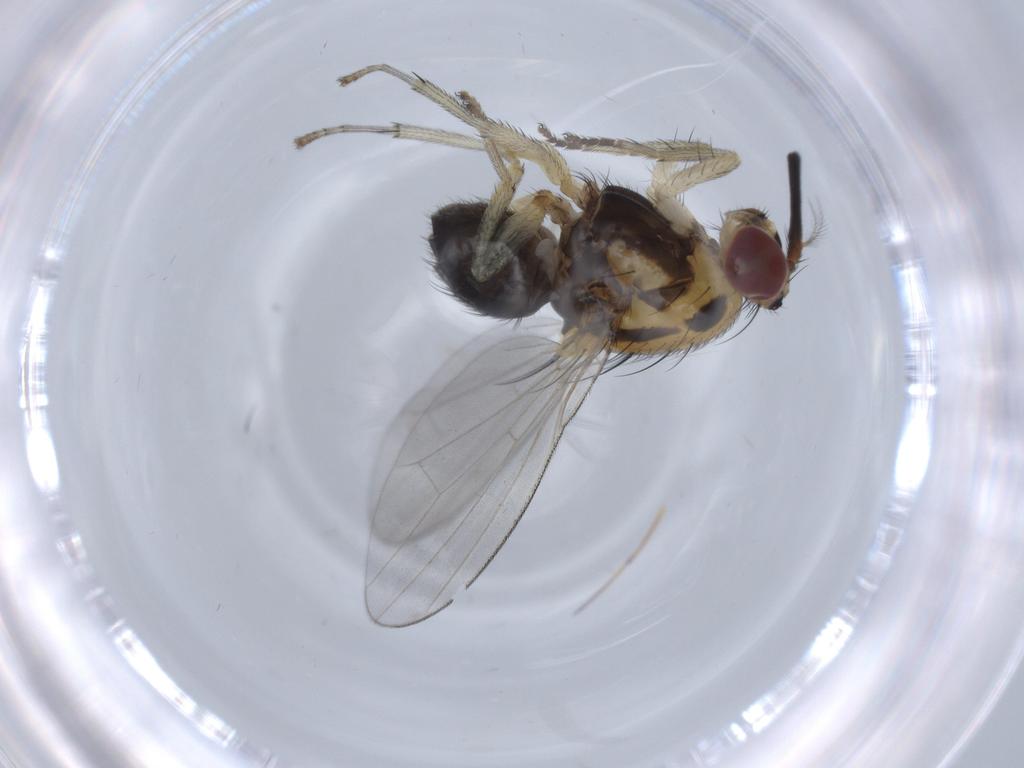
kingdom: Animalia
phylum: Arthropoda
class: Insecta
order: Diptera
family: Lauxaniidae
